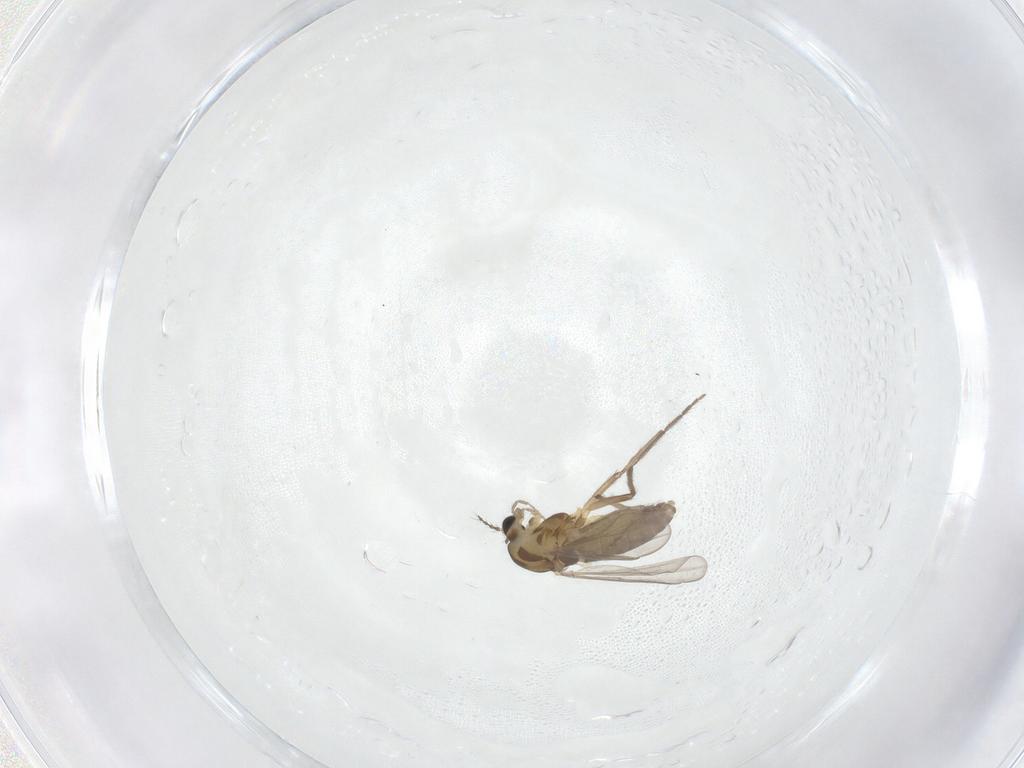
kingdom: Animalia
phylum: Arthropoda
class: Insecta
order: Diptera
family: Chironomidae
